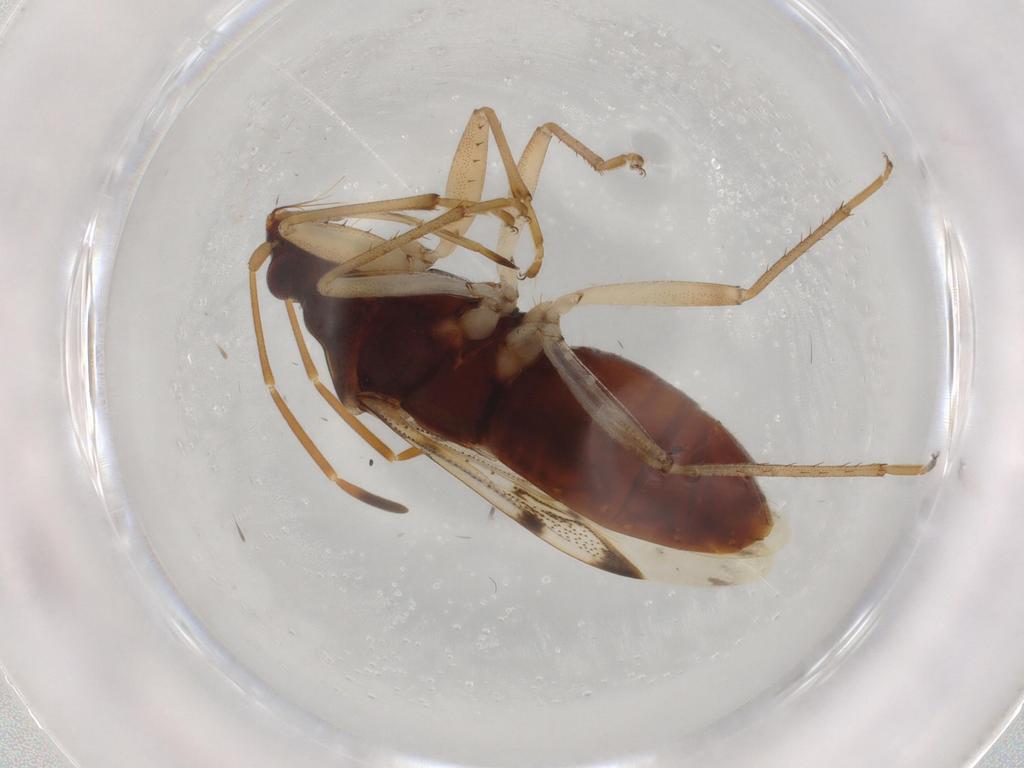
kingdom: Animalia
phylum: Arthropoda
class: Insecta
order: Hemiptera
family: Rhyparochromidae
